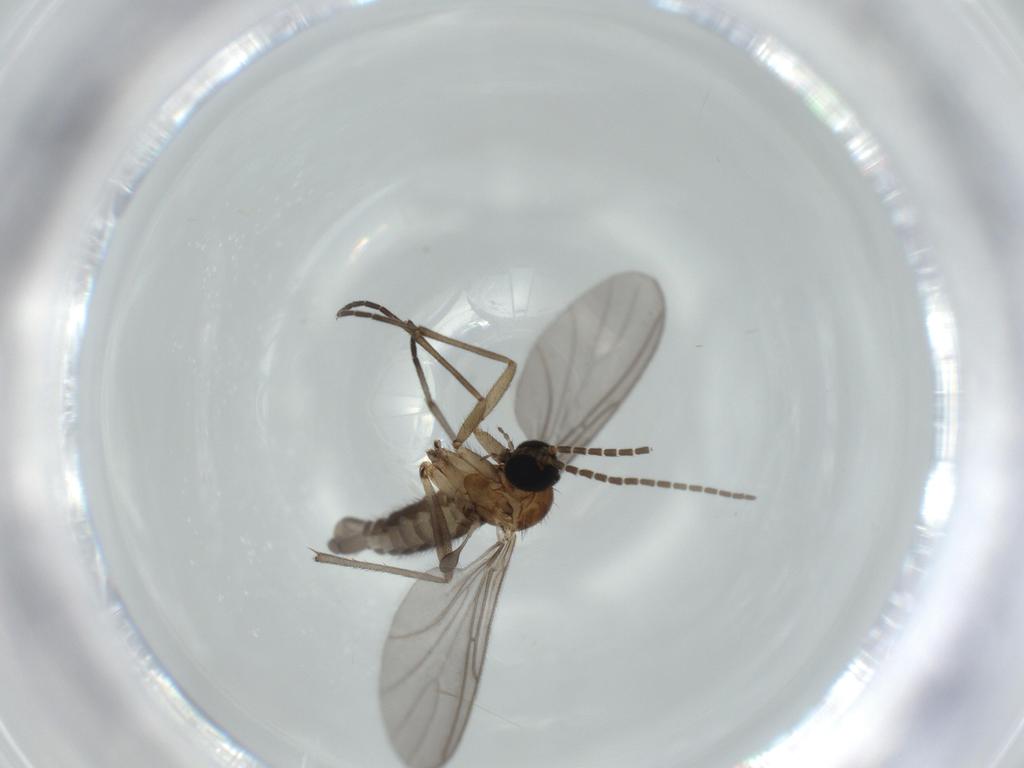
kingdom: Animalia
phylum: Arthropoda
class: Insecta
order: Diptera
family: Sciaridae
